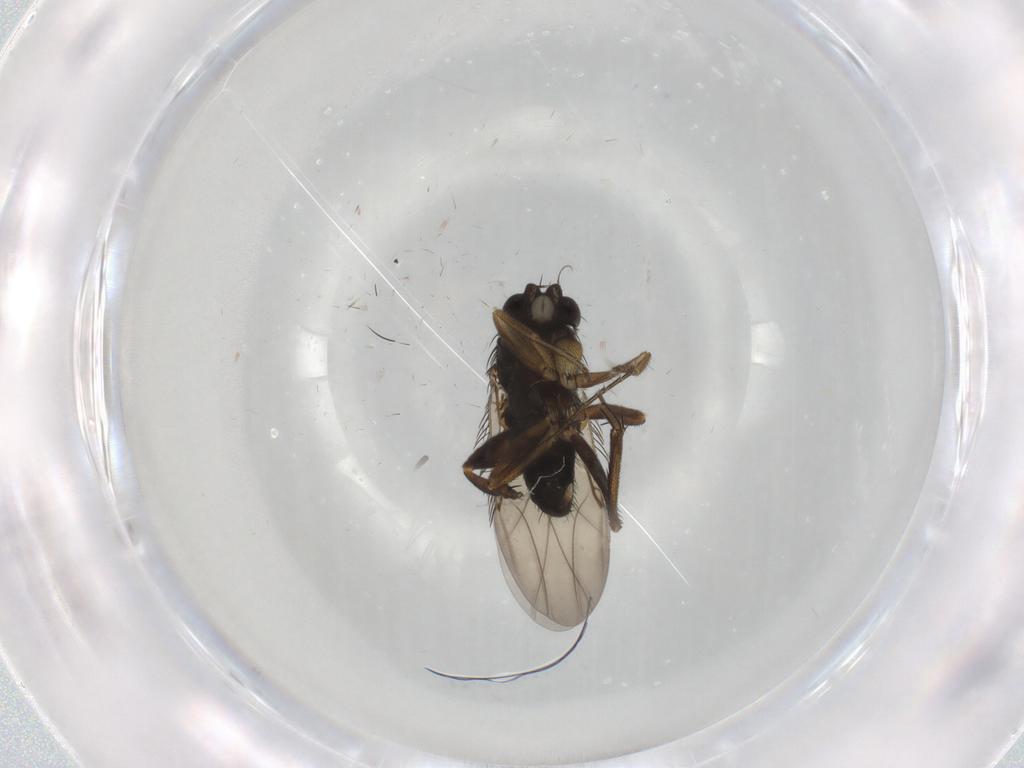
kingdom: Animalia
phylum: Arthropoda
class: Insecta
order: Diptera
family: Phoridae
